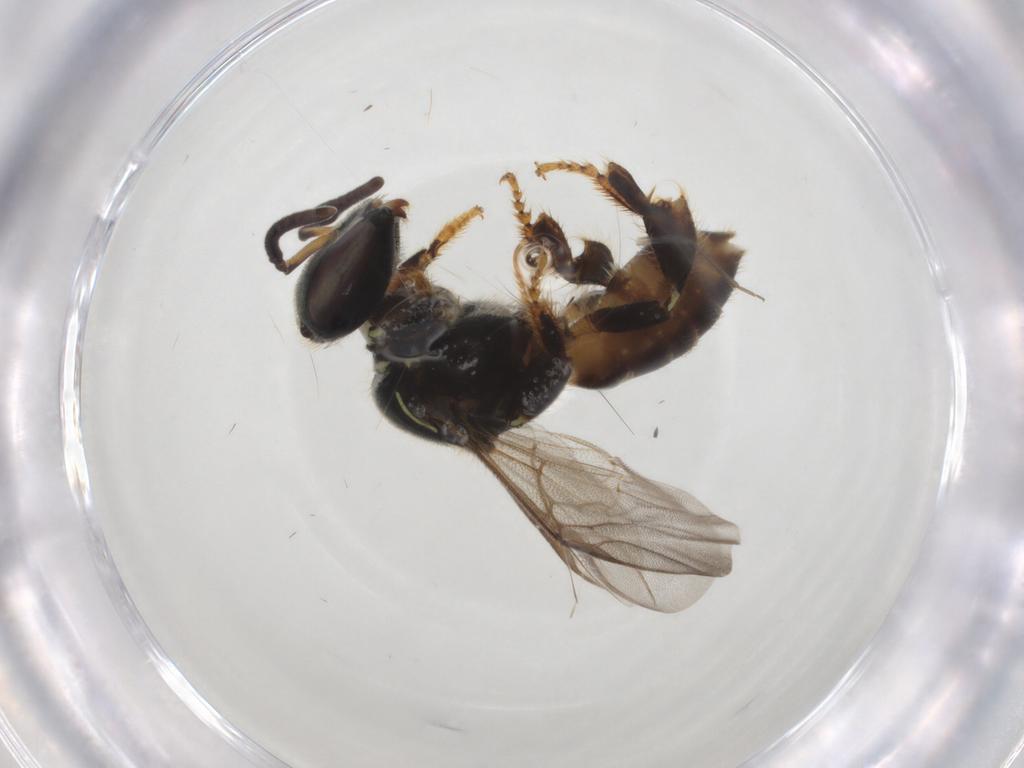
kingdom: Animalia
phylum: Arthropoda
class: Insecta
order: Hymenoptera
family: Apidae
